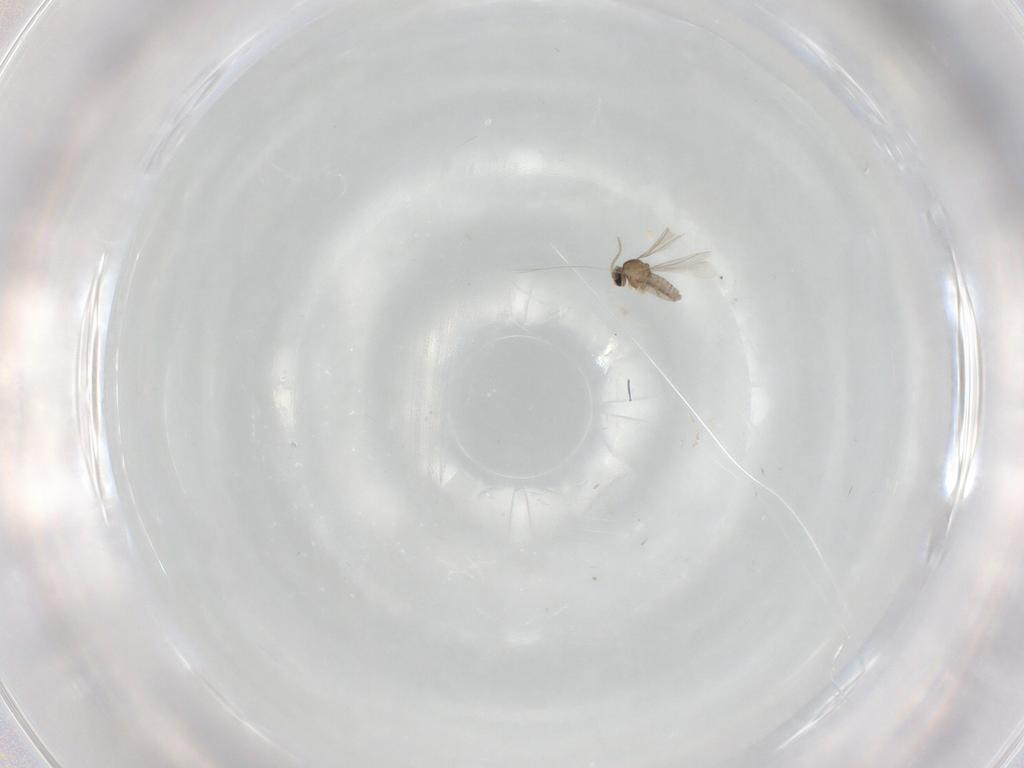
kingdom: Animalia
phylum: Arthropoda
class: Insecta
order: Diptera
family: Cecidomyiidae
